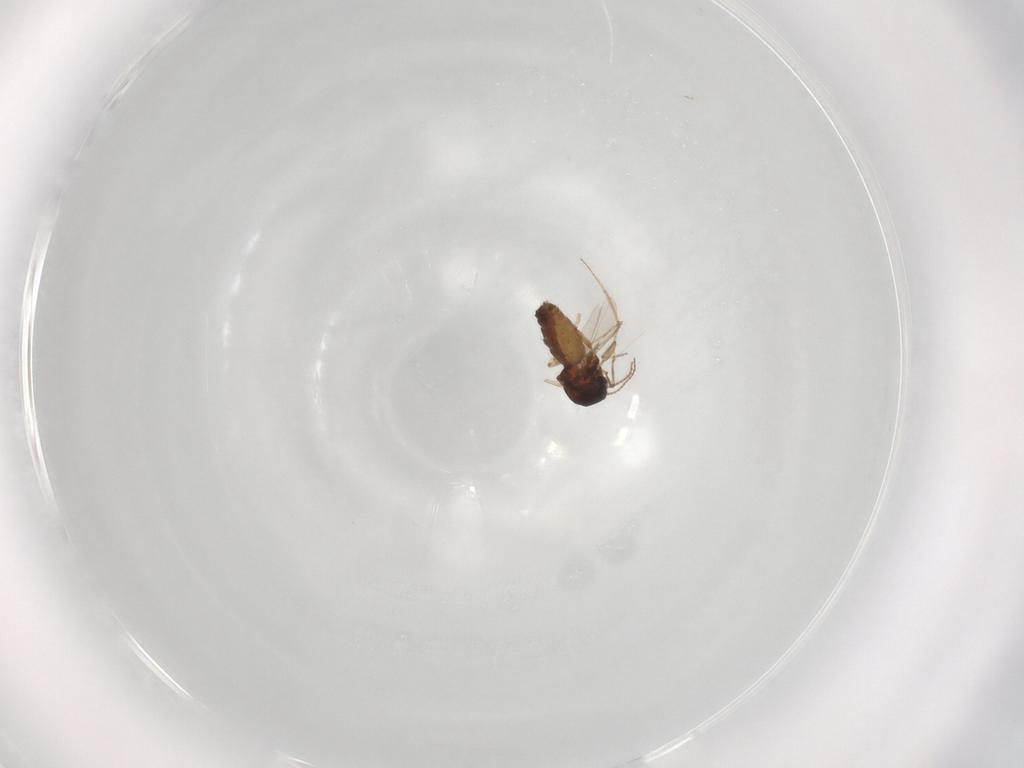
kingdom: Animalia
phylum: Arthropoda
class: Insecta
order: Diptera
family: Ceratopogonidae
